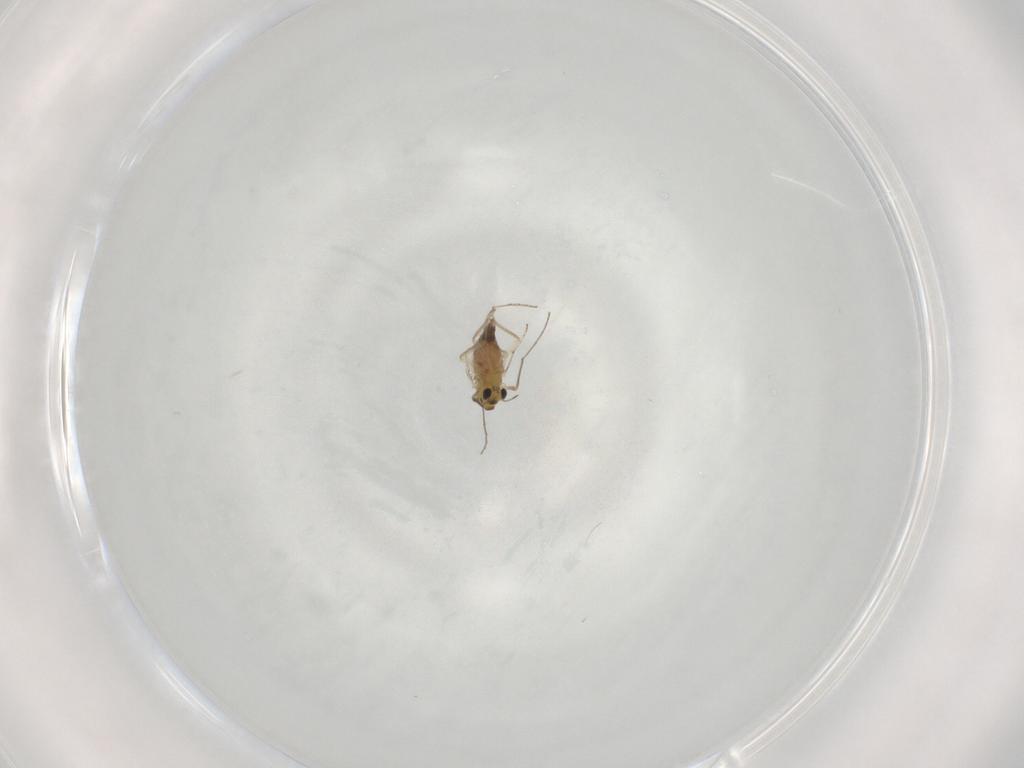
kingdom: Animalia
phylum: Arthropoda
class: Insecta
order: Diptera
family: Chironomidae
